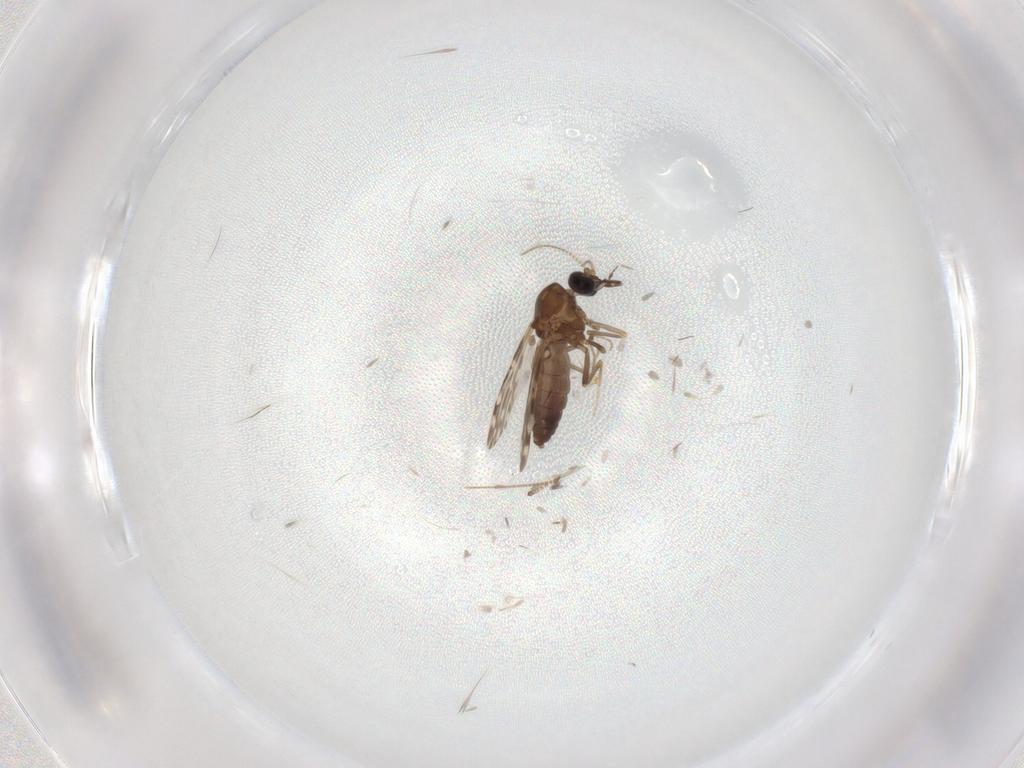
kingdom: Animalia
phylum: Arthropoda
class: Insecta
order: Diptera
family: Ceratopogonidae
